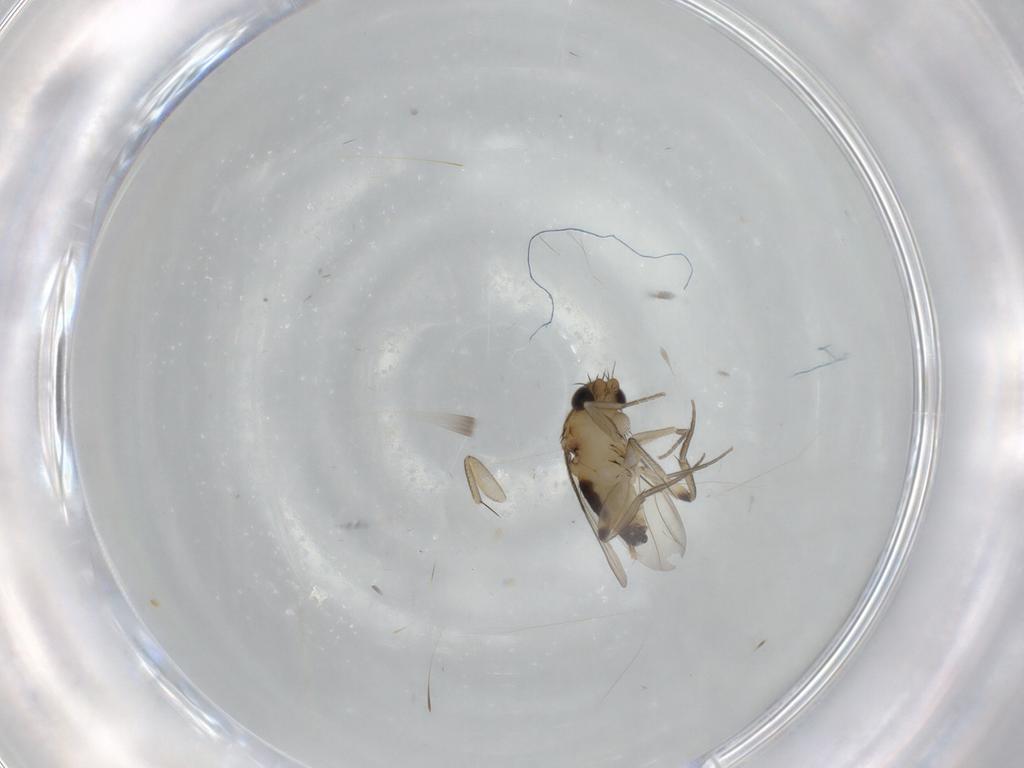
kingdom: Animalia
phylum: Arthropoda
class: Insecta
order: Diptera
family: Phoridae
